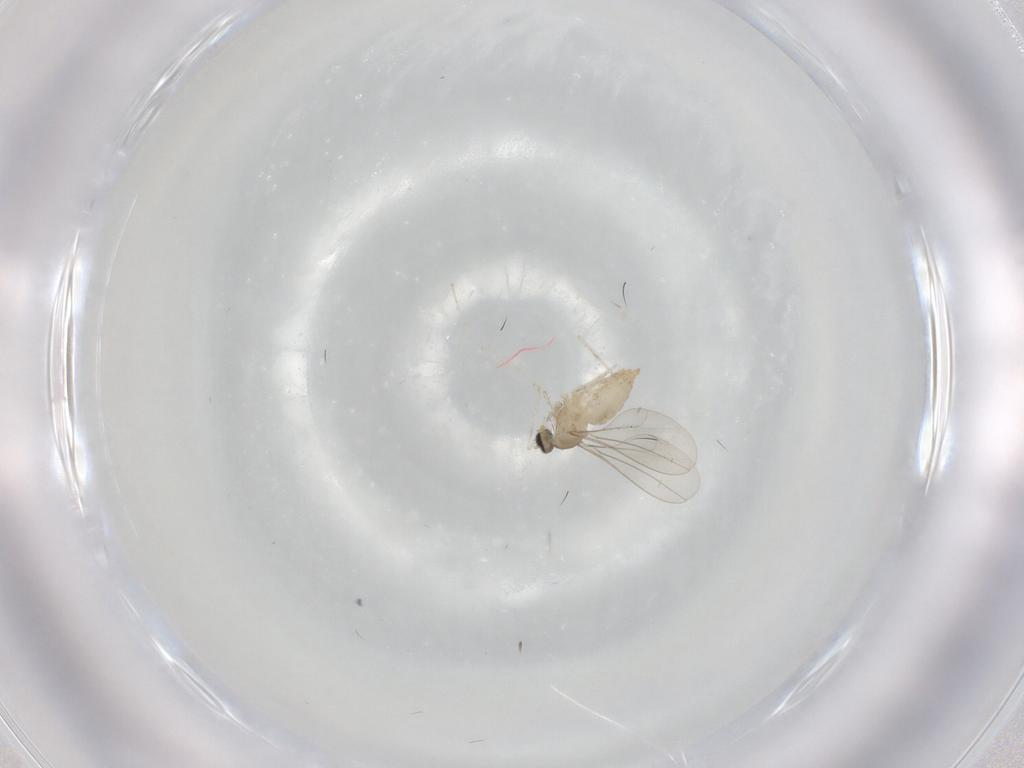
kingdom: Animalia
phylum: Arthropoda
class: Insecta
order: Diptera
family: Cecidomyiidae
